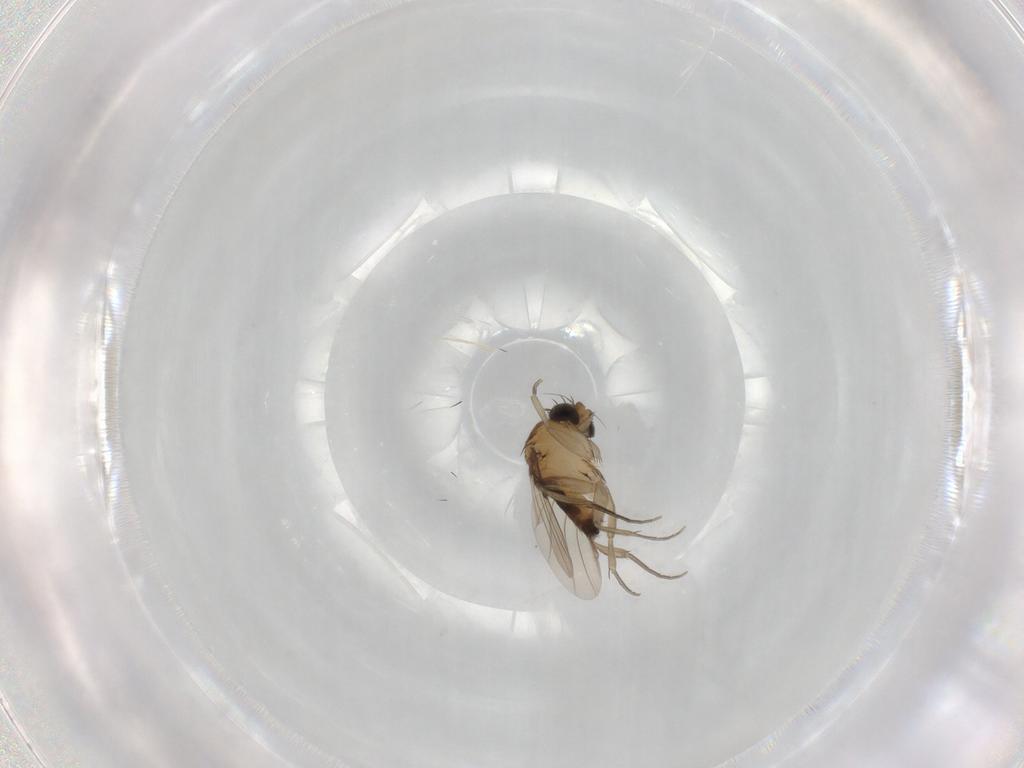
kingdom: Animalia
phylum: Arthropoda
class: Insecta
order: Diptera
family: Phoridae
